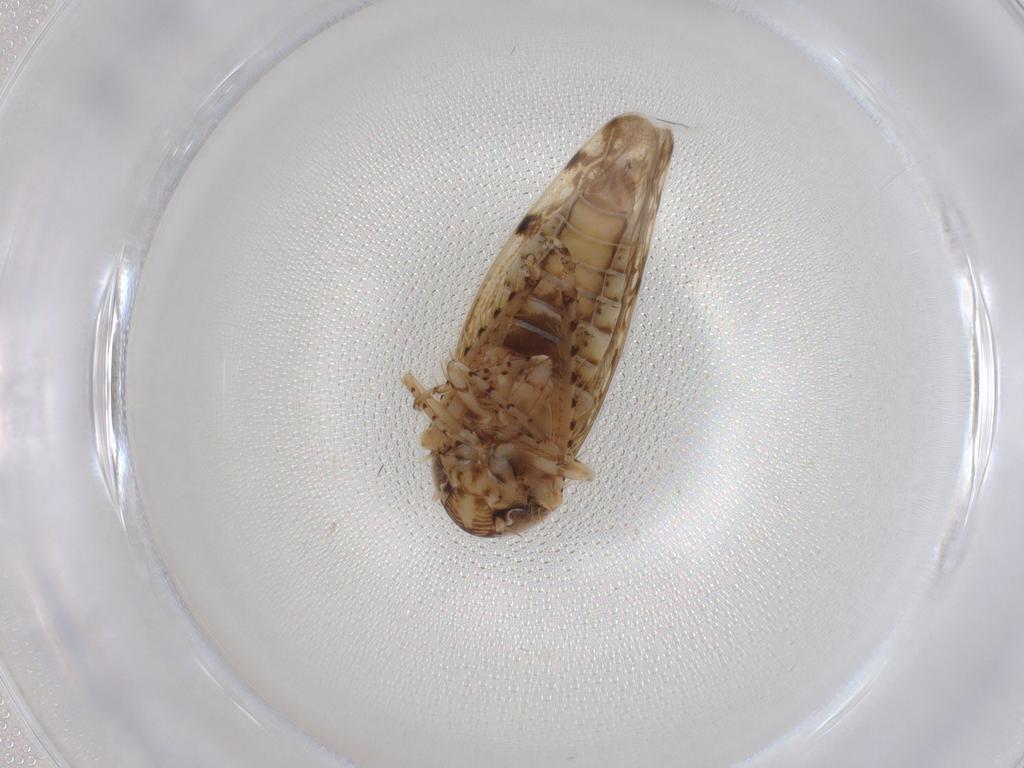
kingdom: Animalia
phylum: Arthropoda
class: Insecta
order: Hemiptera
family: Cicadellidae
